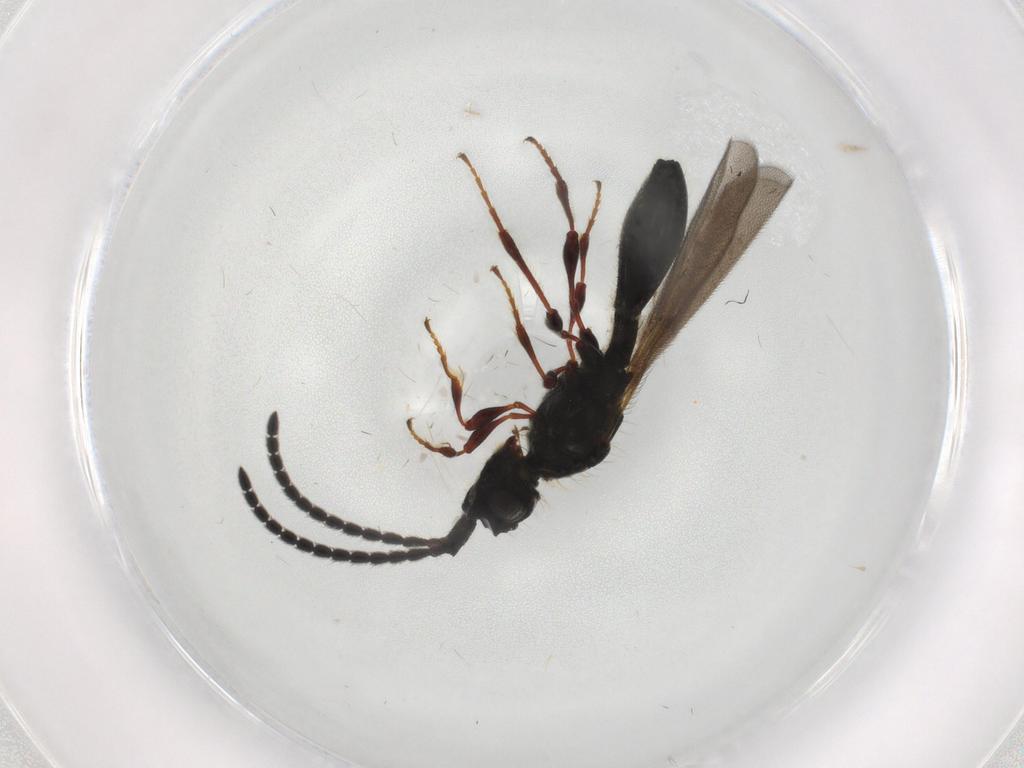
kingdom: Animalia
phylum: Arthropoda
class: Insecta
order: Hymenoptera
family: Diapriidae
